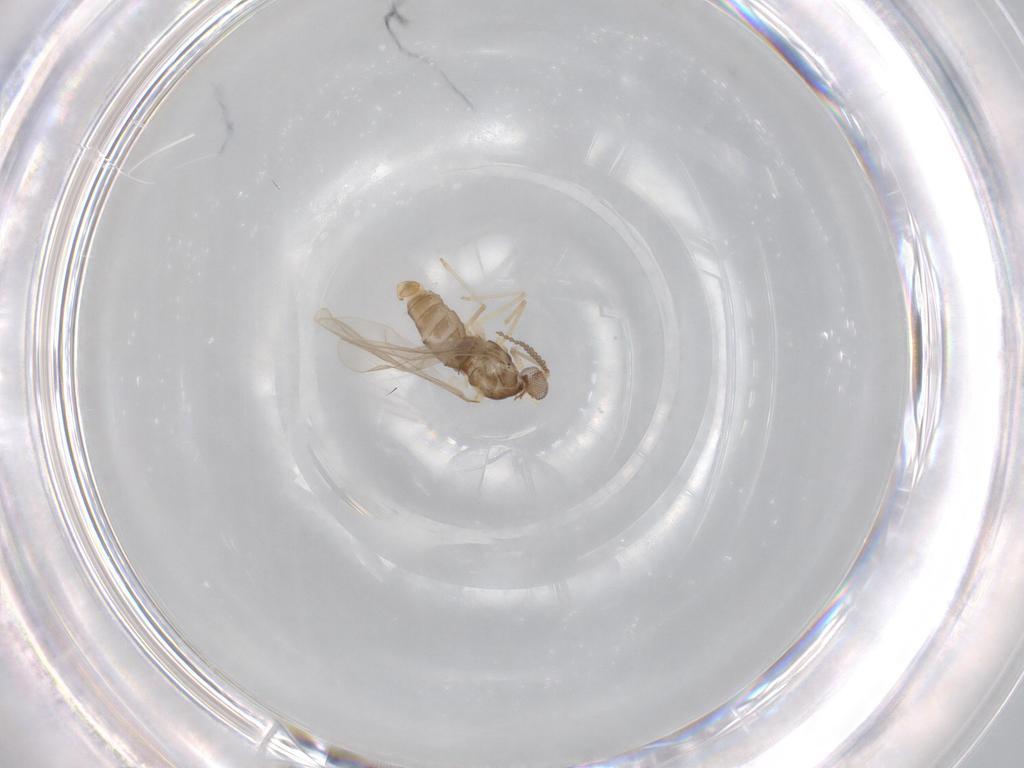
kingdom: Animalia
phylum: Arthropoda
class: Insecta
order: Diptera
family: Cecidomyiidae
